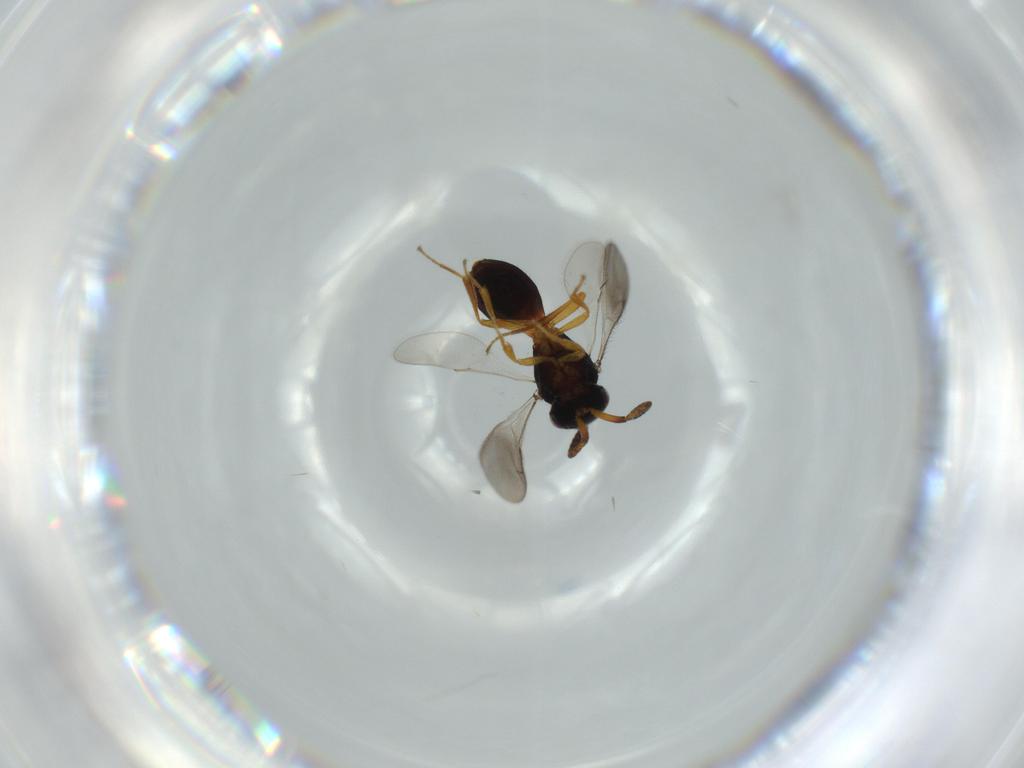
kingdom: Animalia
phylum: Arthropoda
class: Insecta
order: Hymenoptera
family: Scelionidae
